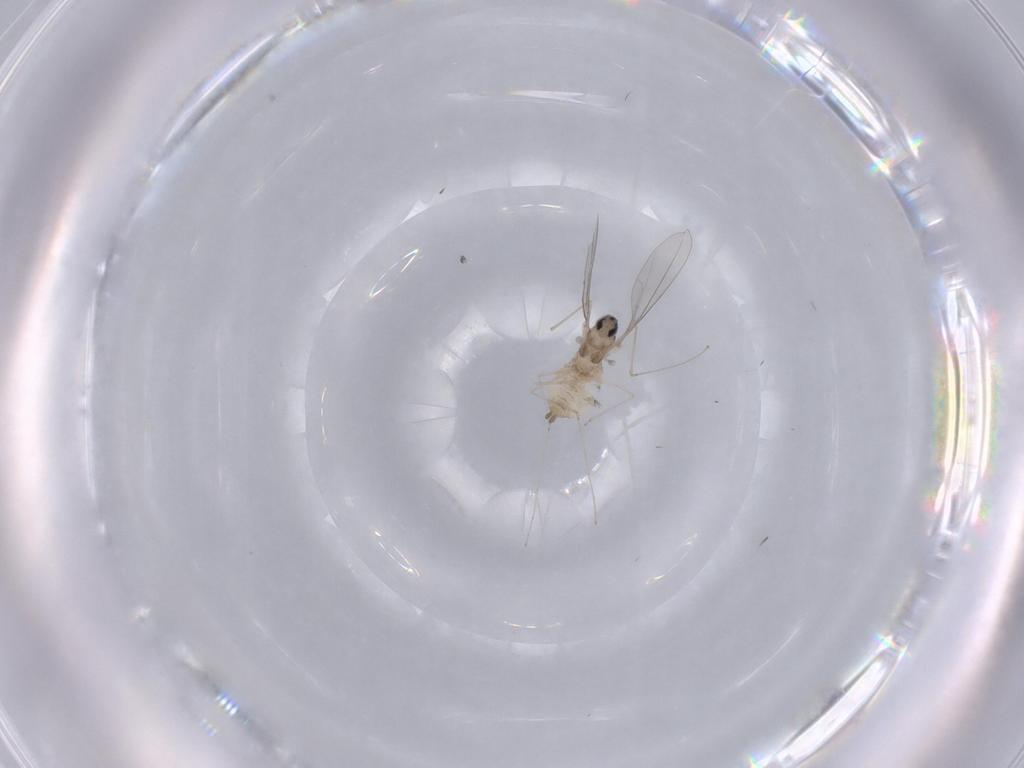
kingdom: Animalia
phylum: Arthropoda
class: Insecta
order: Diptera
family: Cecidomyiidae
